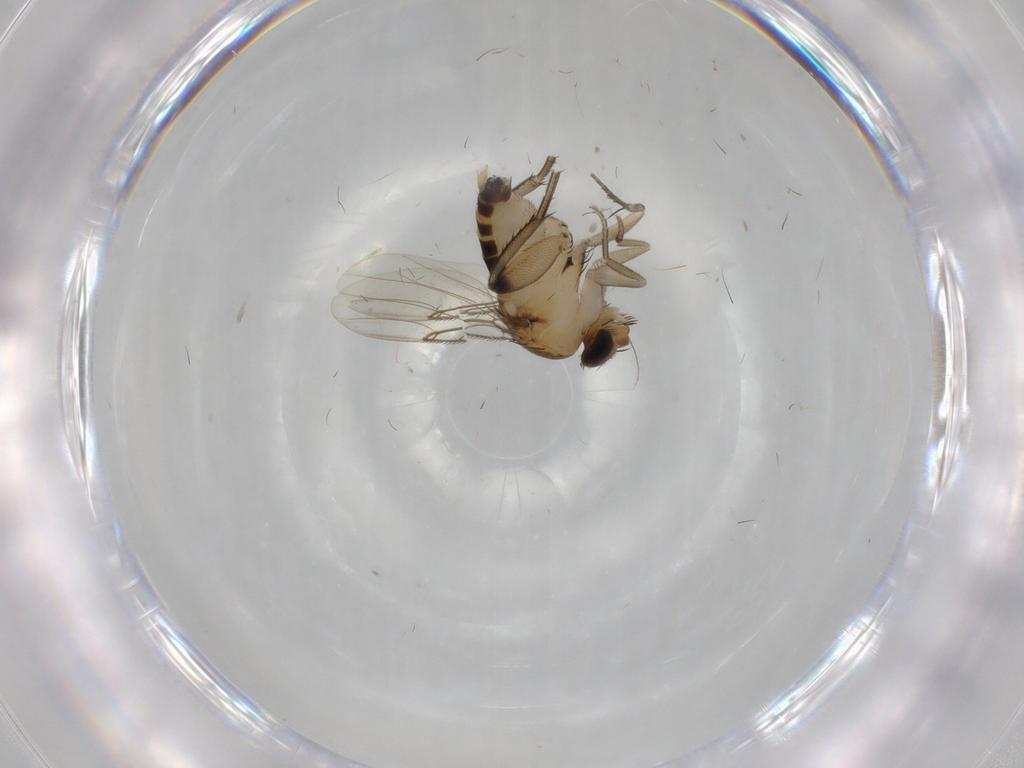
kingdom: Animalia
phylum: Arthropoda
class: Insecta
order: Diptera
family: Phoridae
